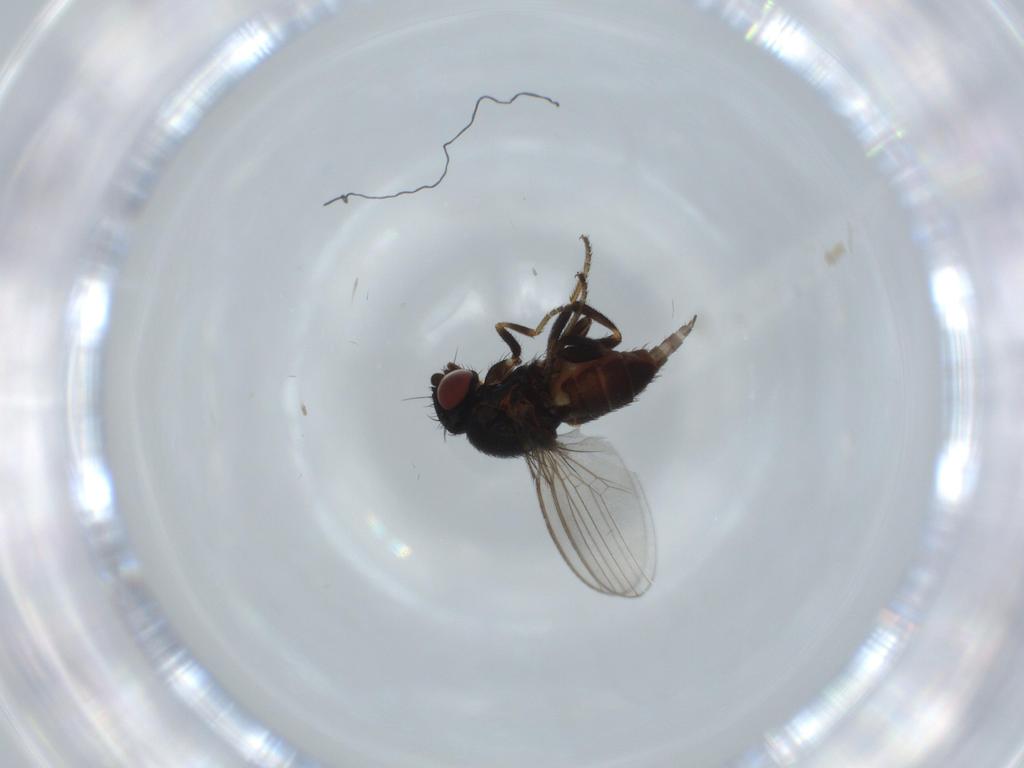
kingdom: Animalia
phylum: Arthropoda
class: Insecta
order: Diptera
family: Milichiidae
